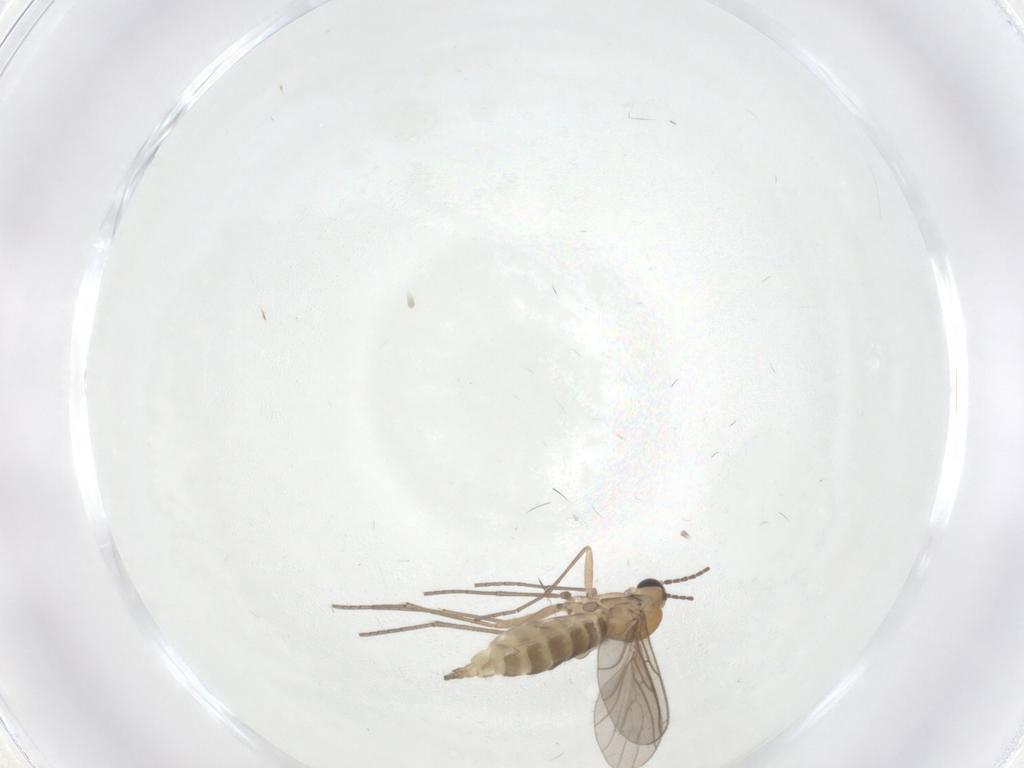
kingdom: Animalia
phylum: Arthropoda
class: Insecta
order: Diptera
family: Sciaridae
